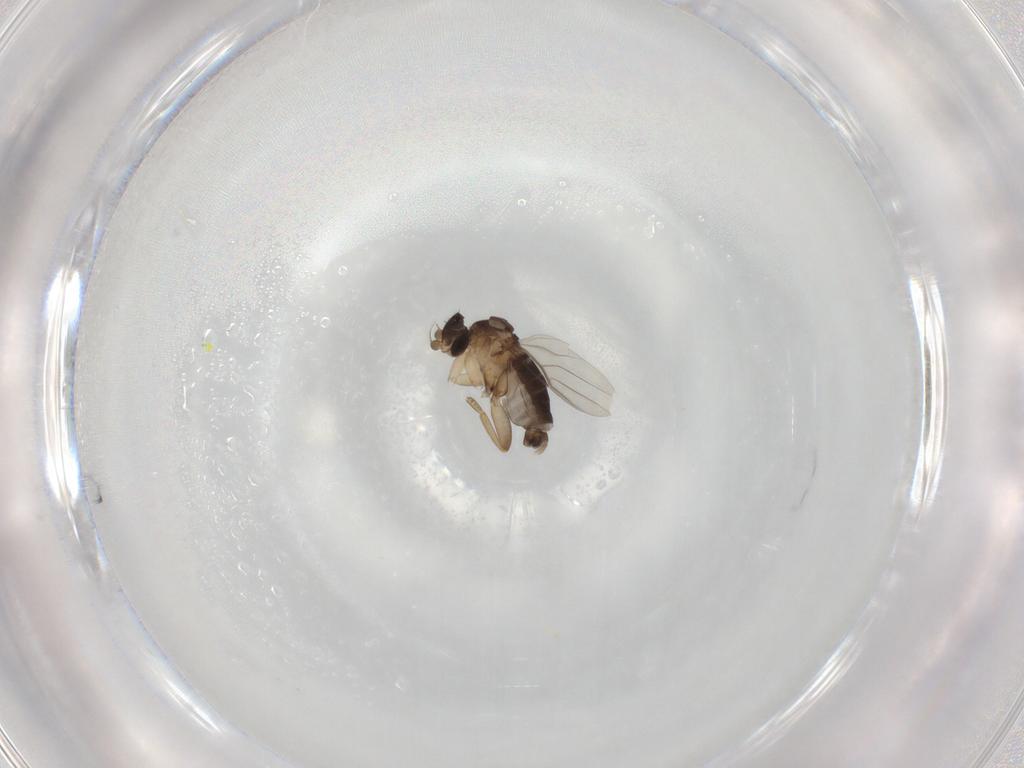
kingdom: Animalia
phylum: Arthropoda
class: Insecta
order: Diptera
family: Phoridae
